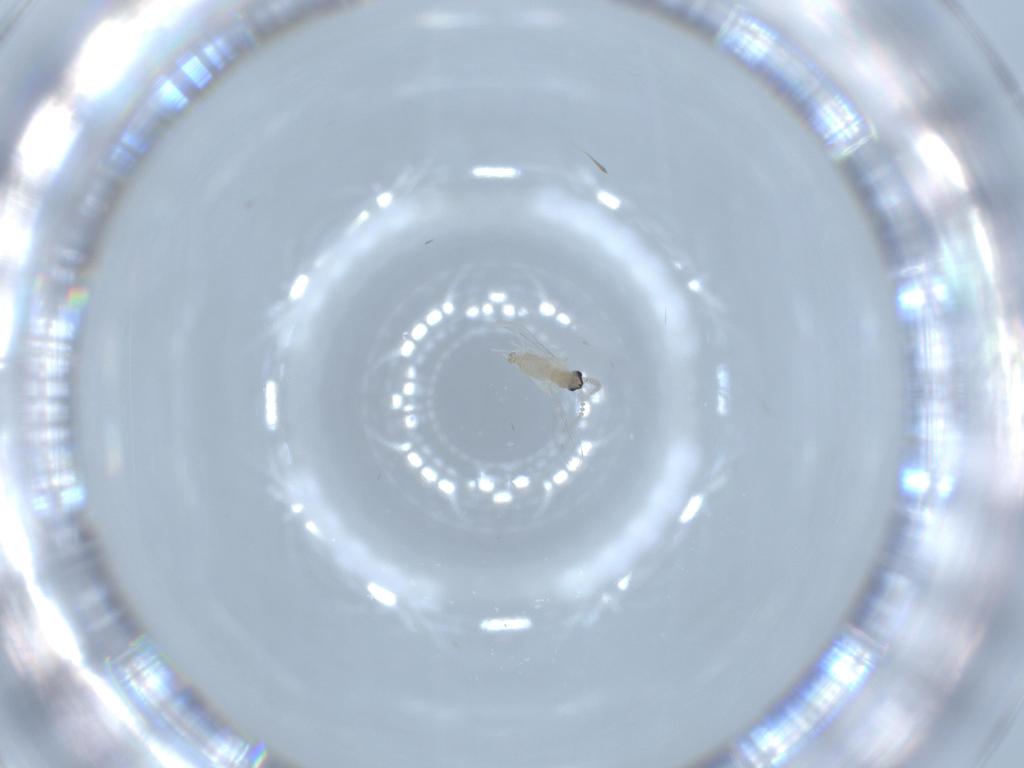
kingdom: Animalia
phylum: Arthropoda
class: Insecta
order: Diptera
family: Cecidomyiidae
